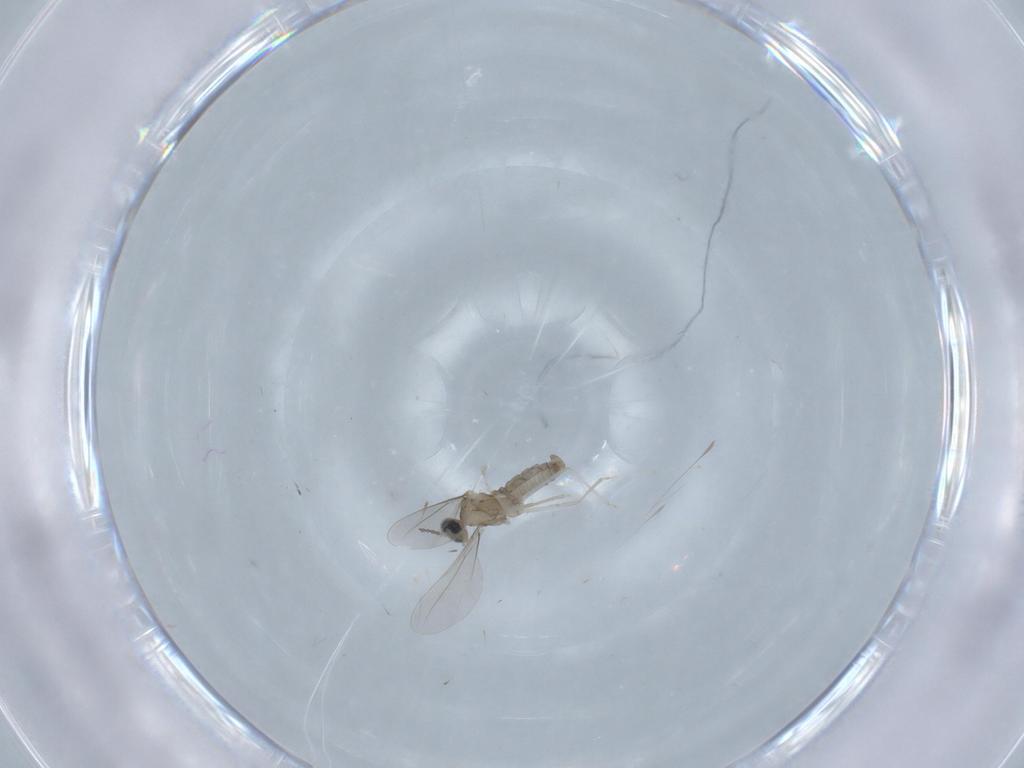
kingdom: Animalia
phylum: Arthropoda
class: Insecta
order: Diptera
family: Cecidomyiidae
